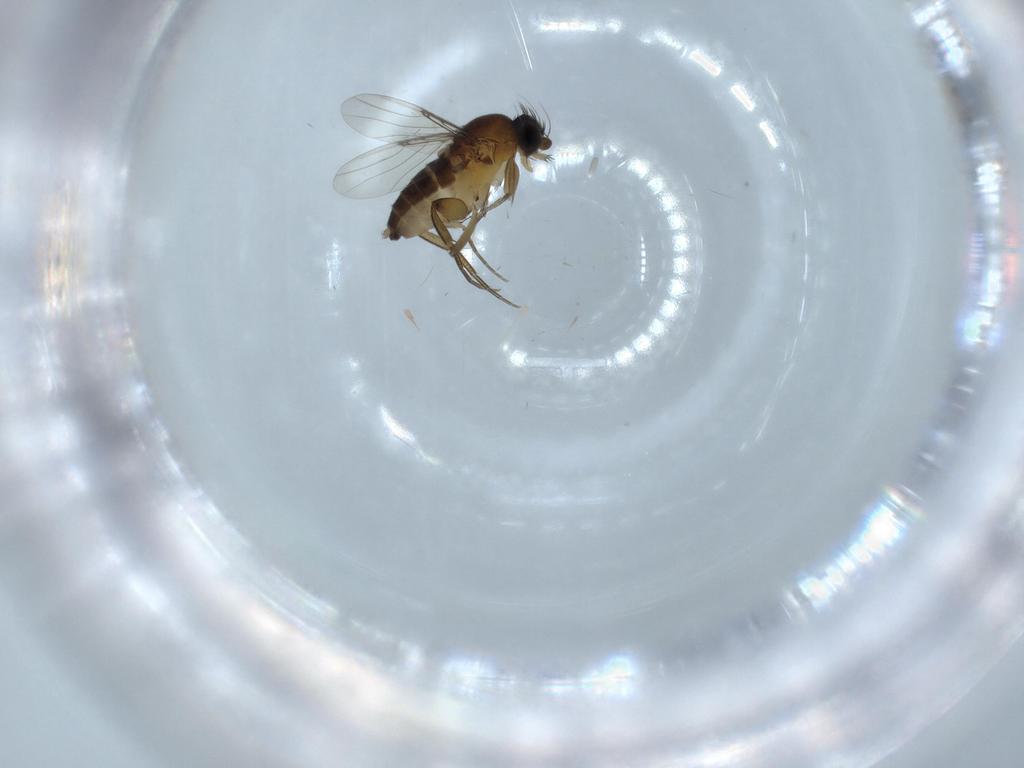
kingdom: Animalia
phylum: Arthropoda
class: Insecta
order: Diptera
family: Phoridae
